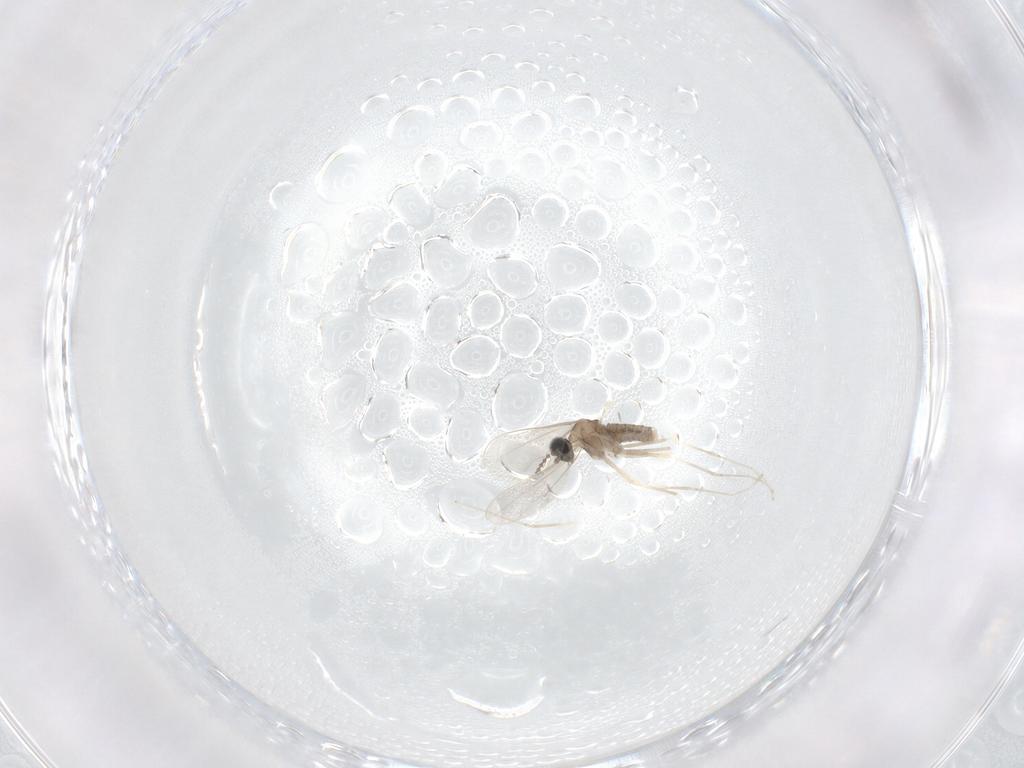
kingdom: Animalia
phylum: Arthropoda
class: Insecta
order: Diptera
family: Cecidomyiidae
